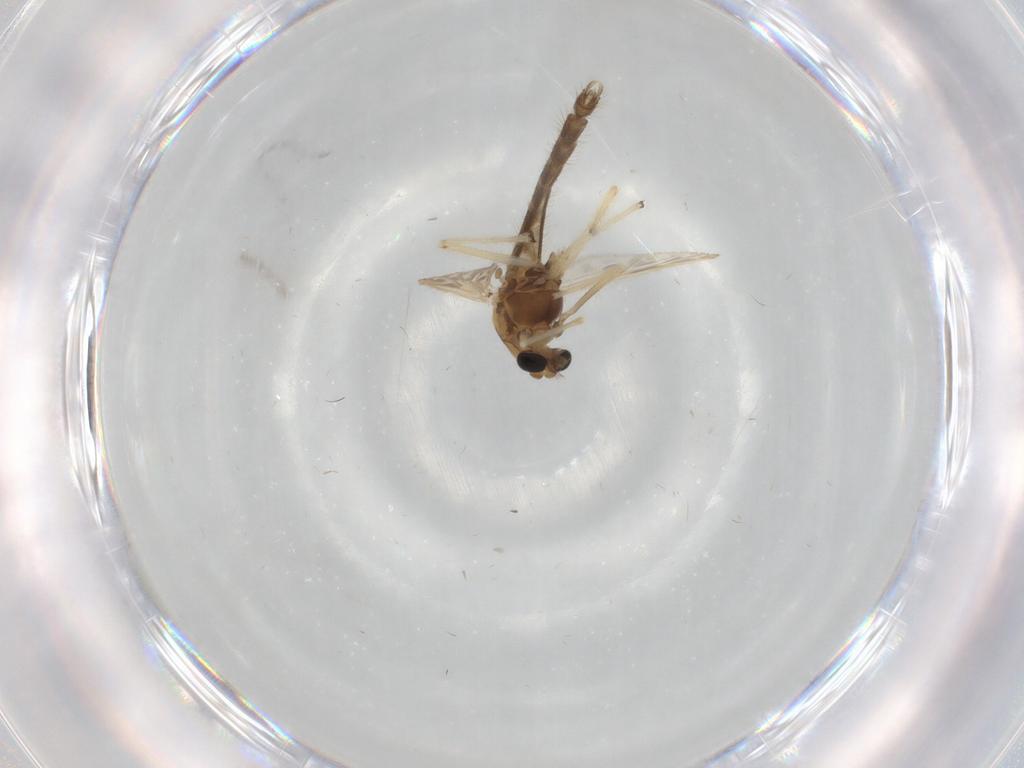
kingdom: Animalia
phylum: Arthropoda
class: Insecta
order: Diptera
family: Chironomidae
